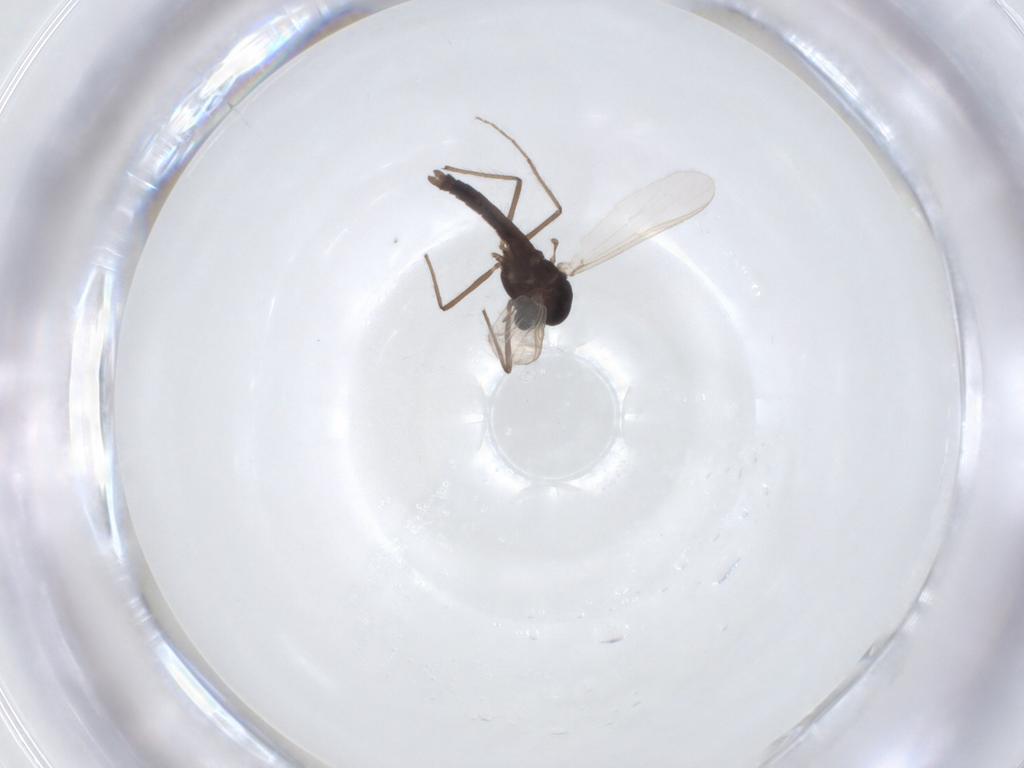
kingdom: Animalia
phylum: Arthropoda
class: Insecta
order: Diptera
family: Chironomidae
